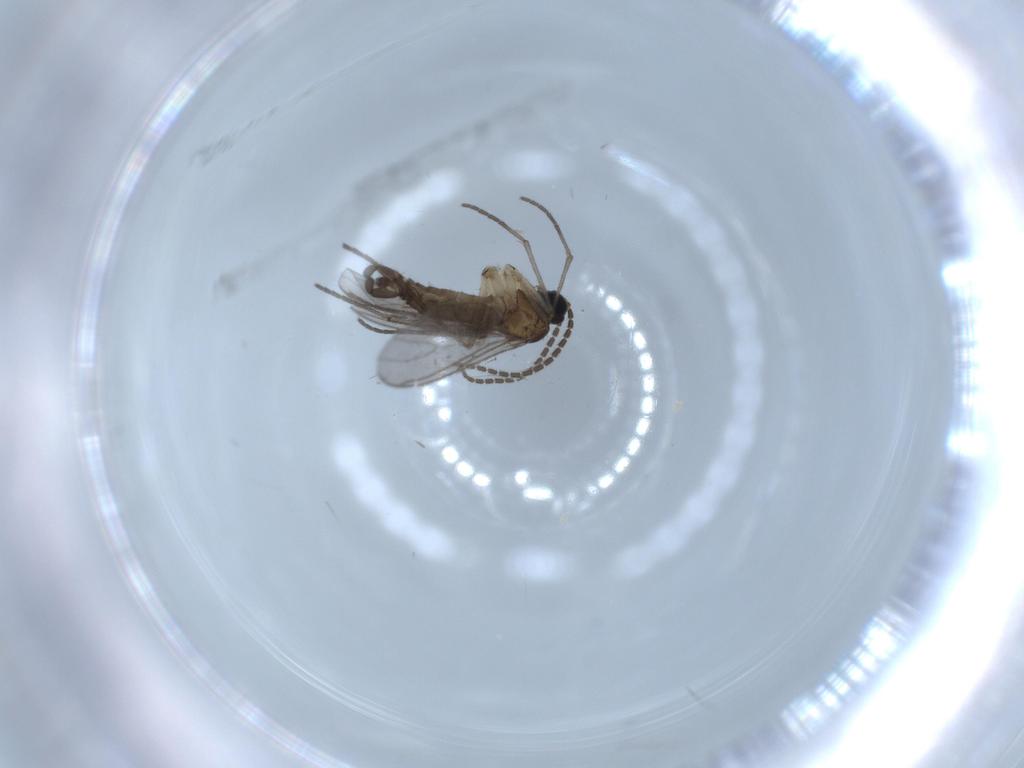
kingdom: Animalia
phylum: Arthropoda
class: Insecta
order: Diptera
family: Sciaridae
